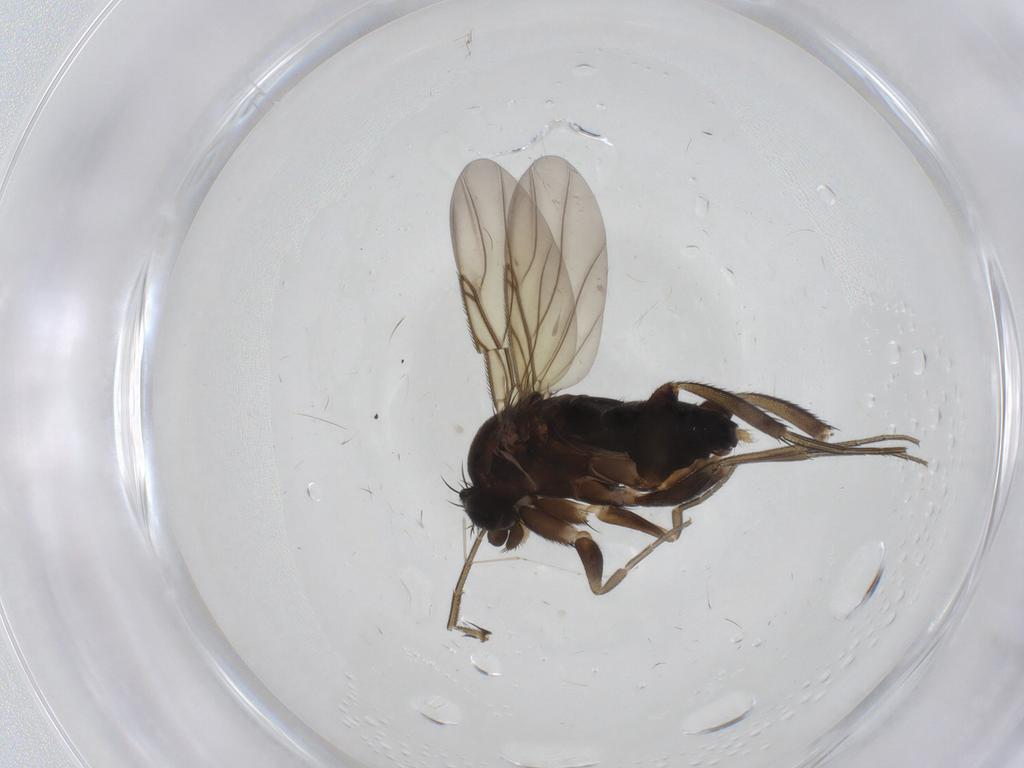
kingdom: Animalia
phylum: Arthropoda
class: Insecta
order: Diptera
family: Phoridae
